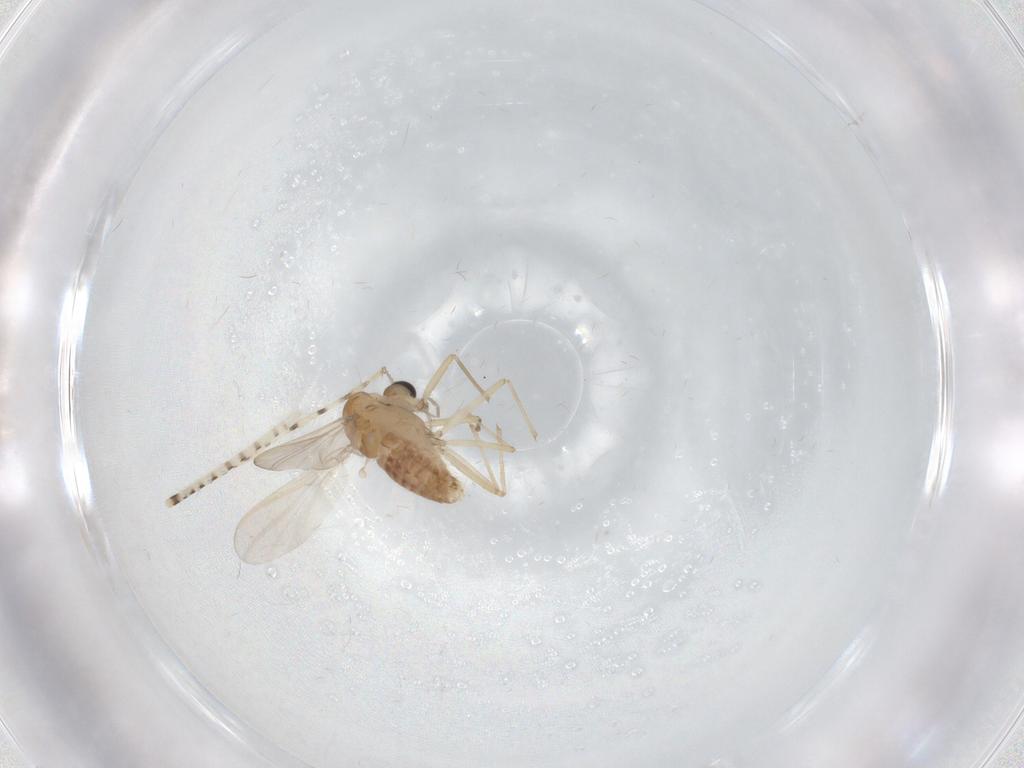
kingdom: Animalia
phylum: Arthropoda
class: Insecta
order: Diptera
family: Chironomidae
